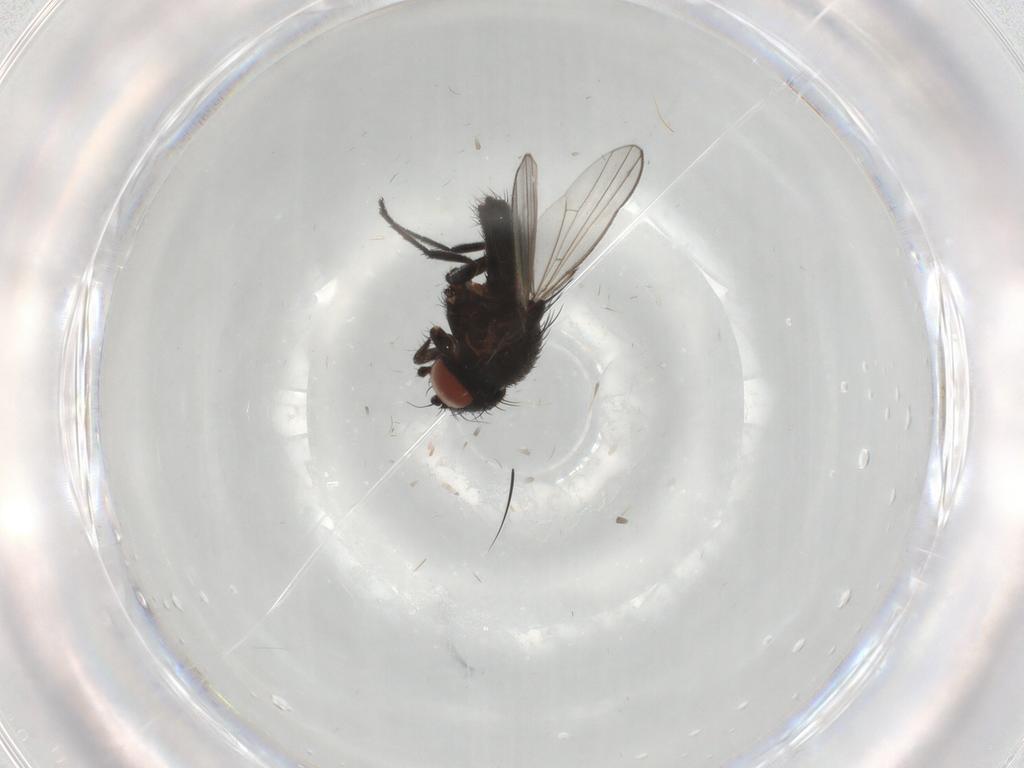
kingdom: Animalia
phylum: Arthropoda
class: Insecta
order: Diptera
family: Milichiidae
